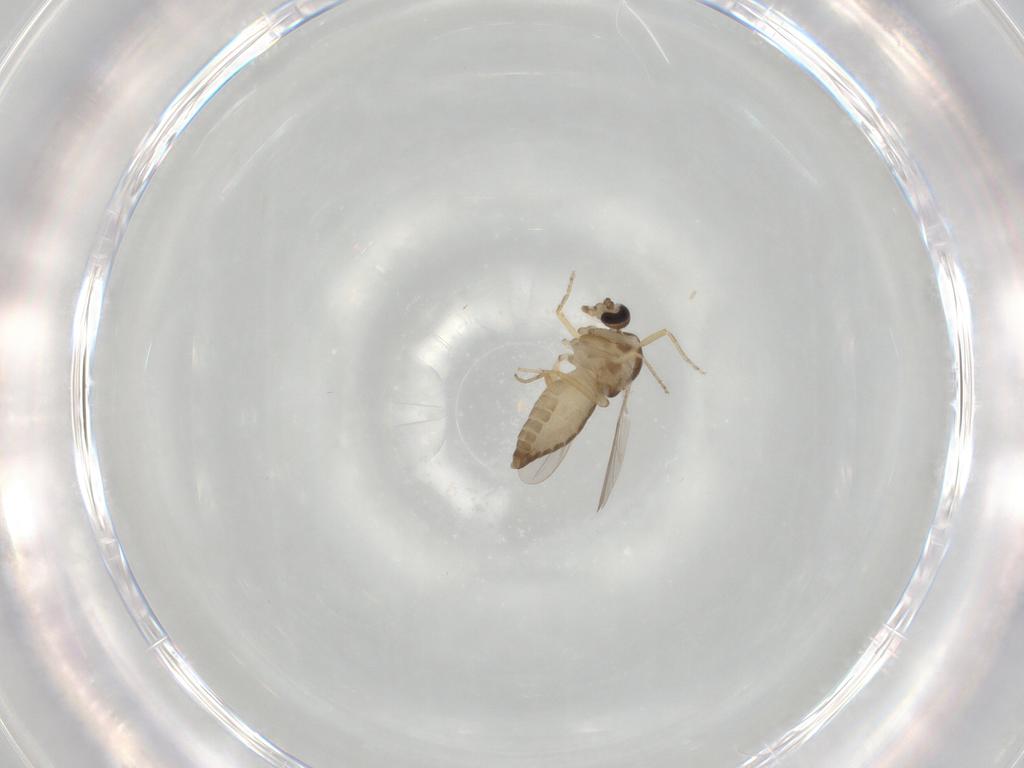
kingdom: Animalia
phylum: Arthropoda
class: Insecta
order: Diptera
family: Ceratopogonidae
